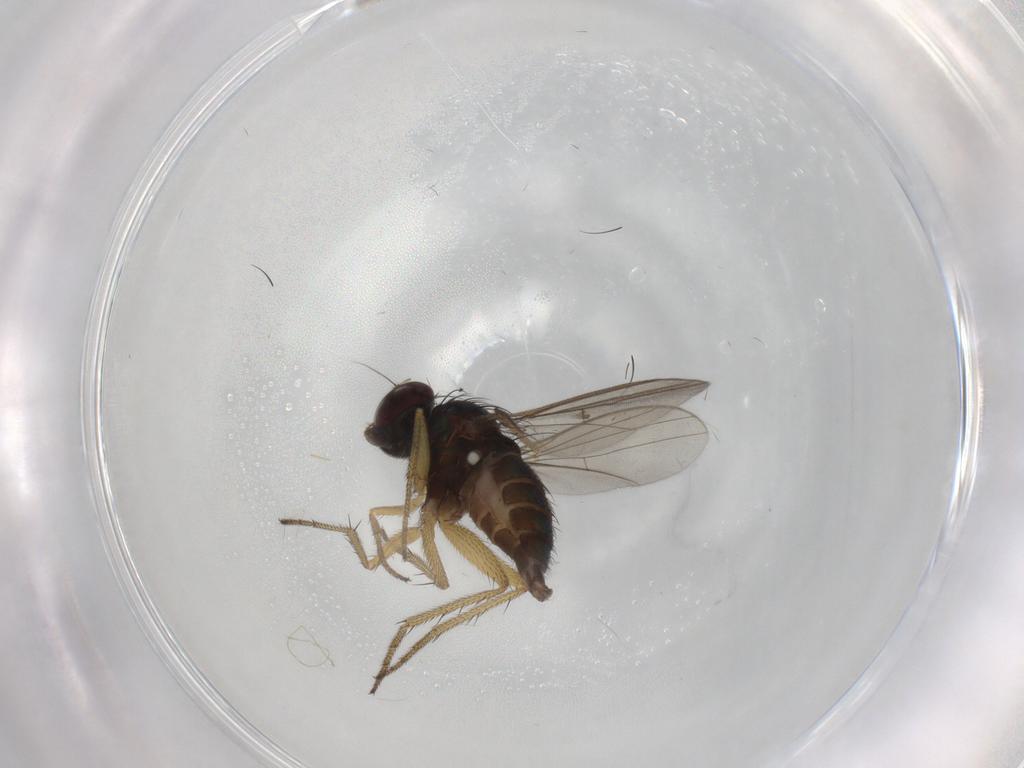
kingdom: Animalia
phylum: Arthropoda
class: Insecta
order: Diptera
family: Chironomidae
